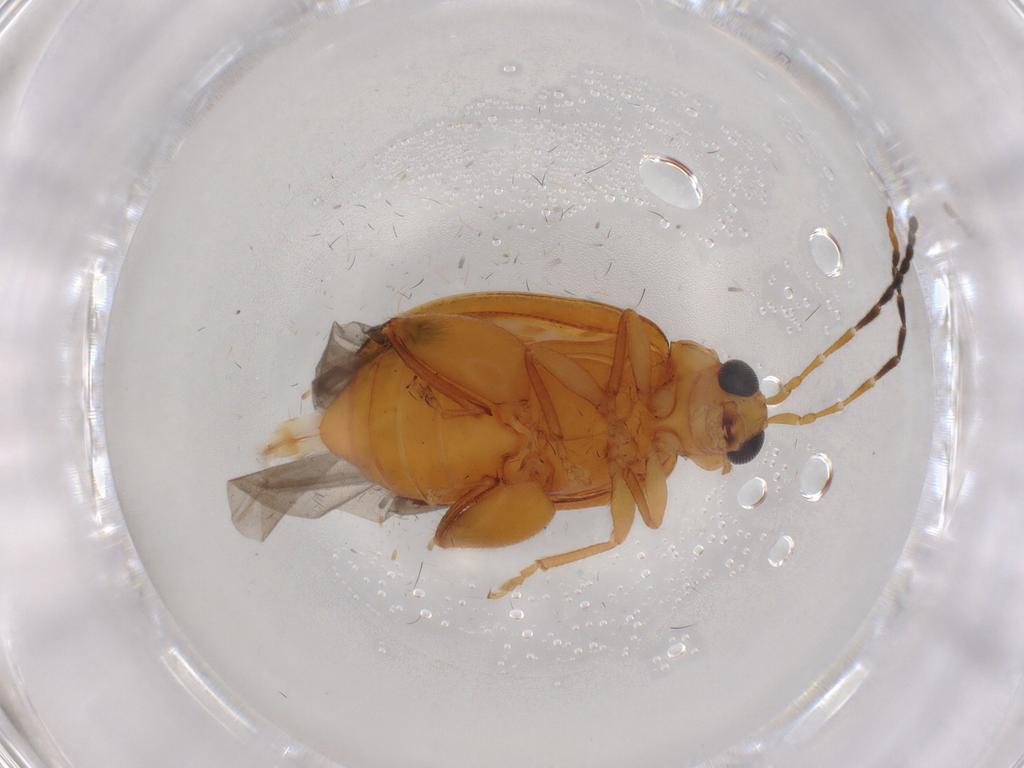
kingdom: Animalia
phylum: Arthropoda
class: Insecta
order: Coleoptera
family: Chrysomelidae
